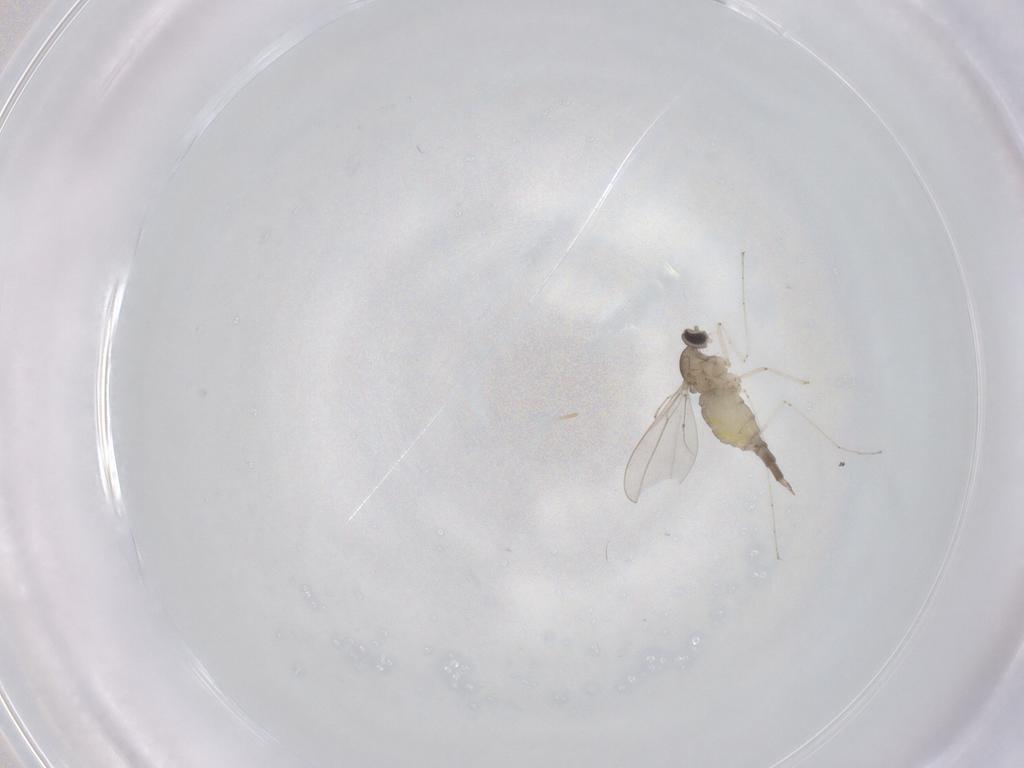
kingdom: Animalia
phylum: Arthropoda
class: Insecta
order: Diptera
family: Cecidomyiidae
